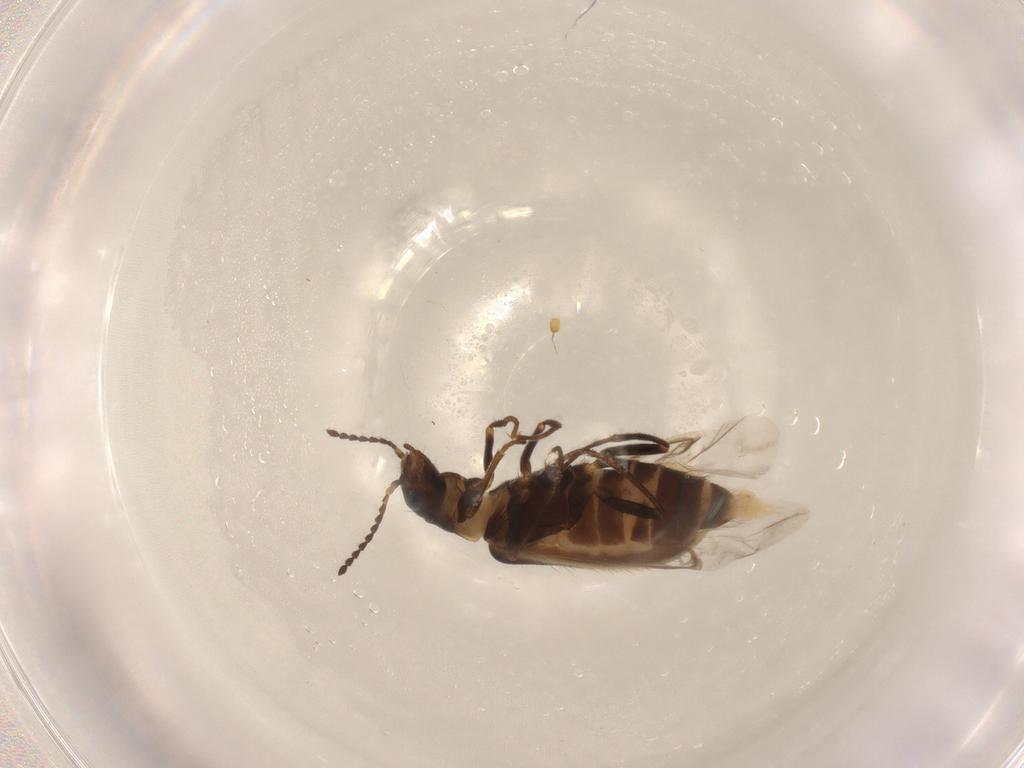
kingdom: Animalia
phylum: Arthropoda
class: Insecta
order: Coleoptera
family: Melyridae
